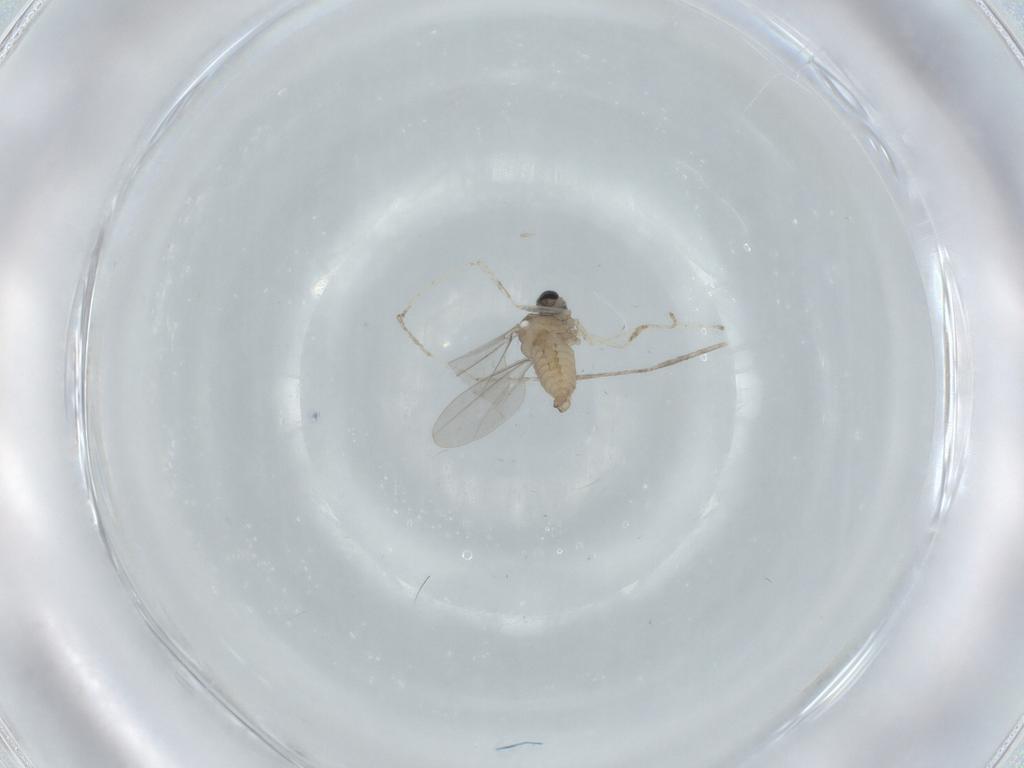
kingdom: Animalia
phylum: Arthropoda
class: Insecta
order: Diptera
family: Cecidomyiidae
